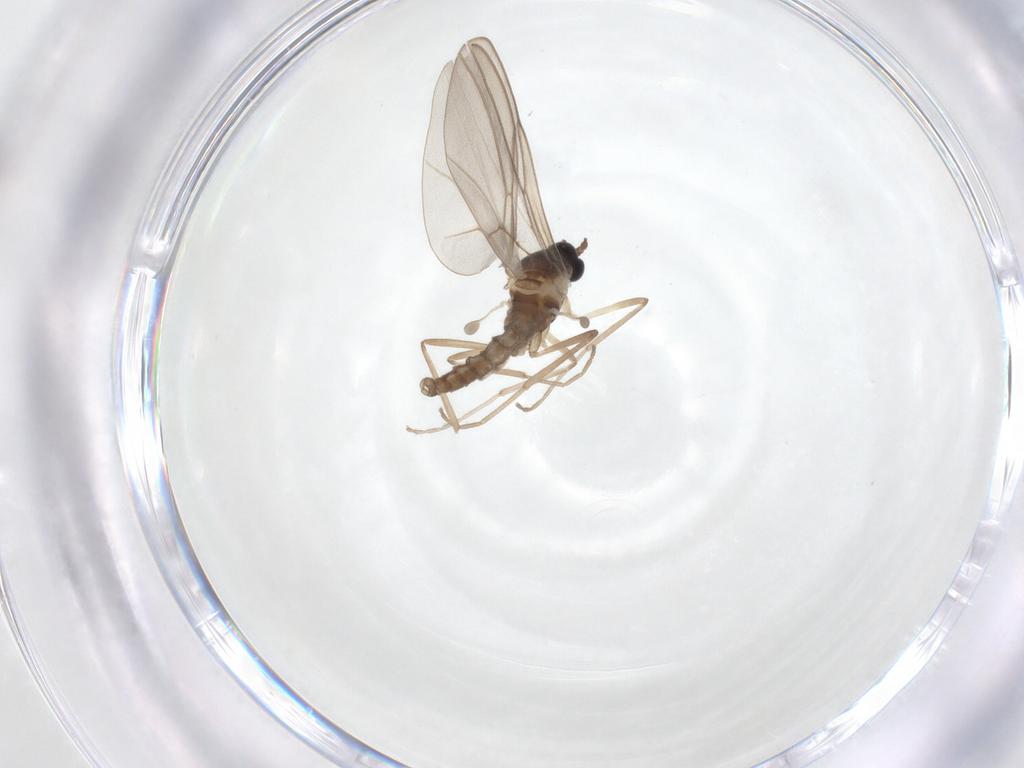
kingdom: Animalia
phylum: Arthropoda
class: Insecta
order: Diptera
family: Cecidomyiidae
